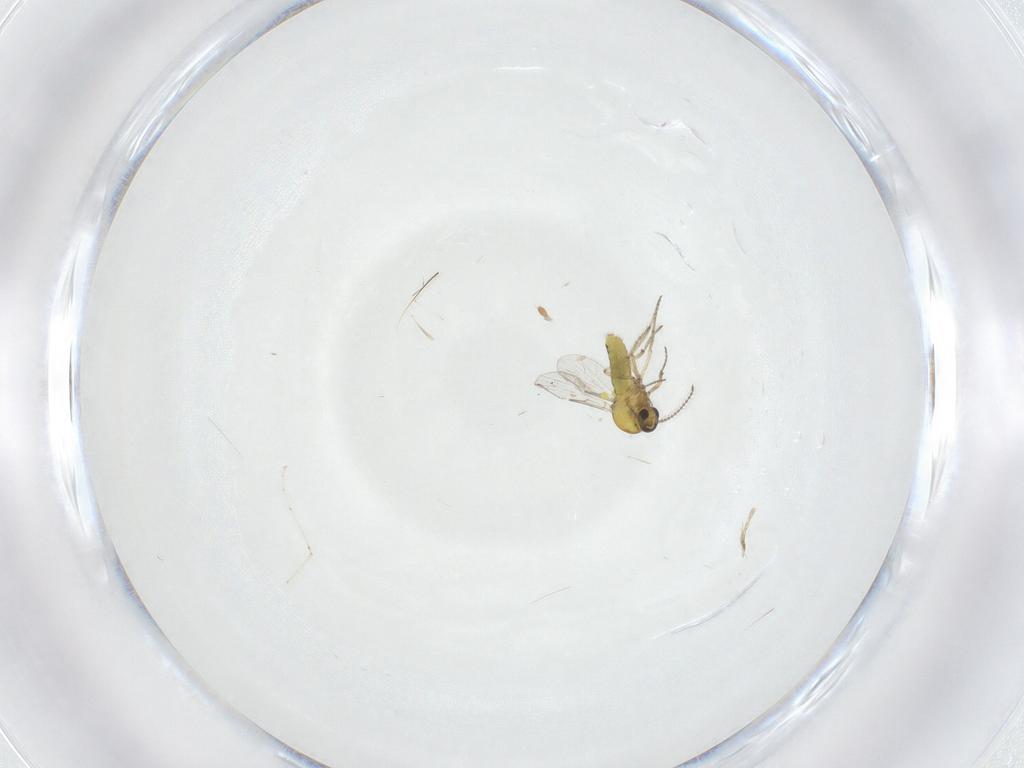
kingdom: Animalia
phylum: Arthropoda
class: Insecta
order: Diptera
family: Cecidomyiidae
